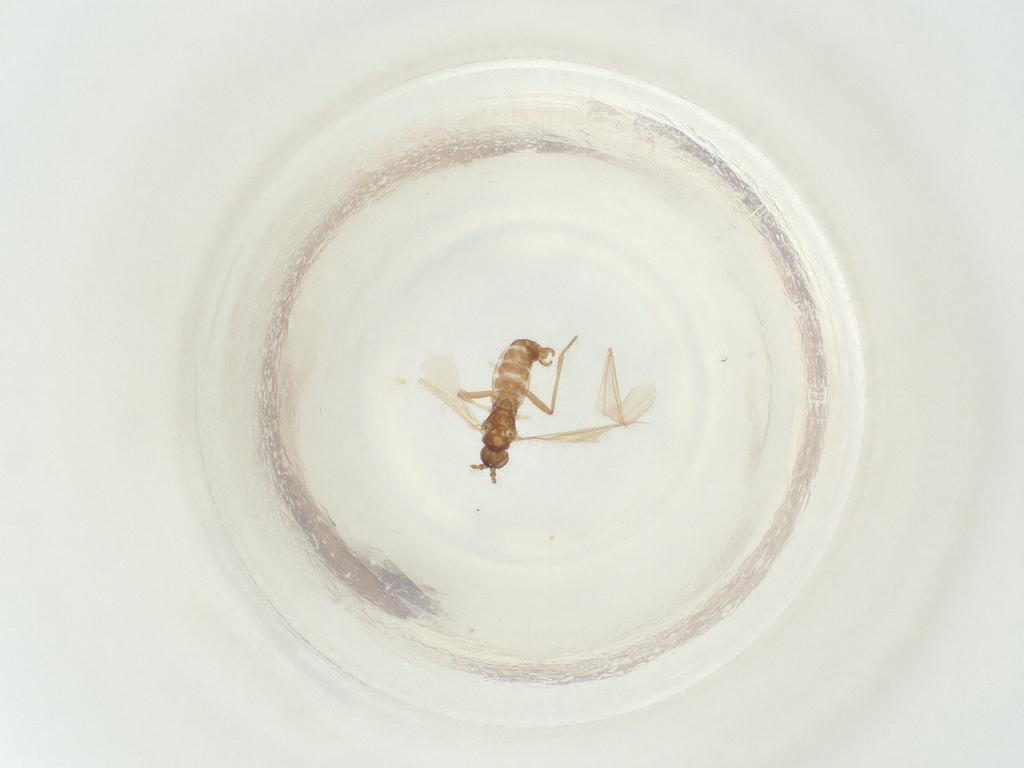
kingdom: Animalia
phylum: Arthropoda
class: Insecta
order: Diptera
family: Sciaridae
